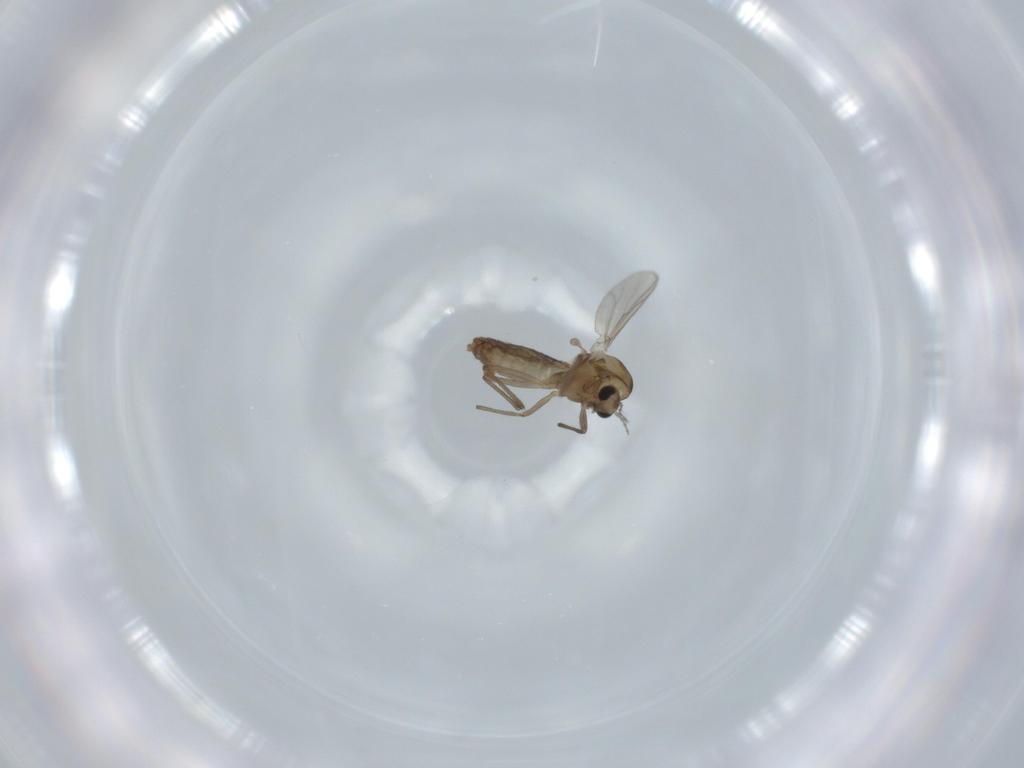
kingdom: Animalia
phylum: Arthropoda
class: Insecta
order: Diptera
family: Chironomidae
